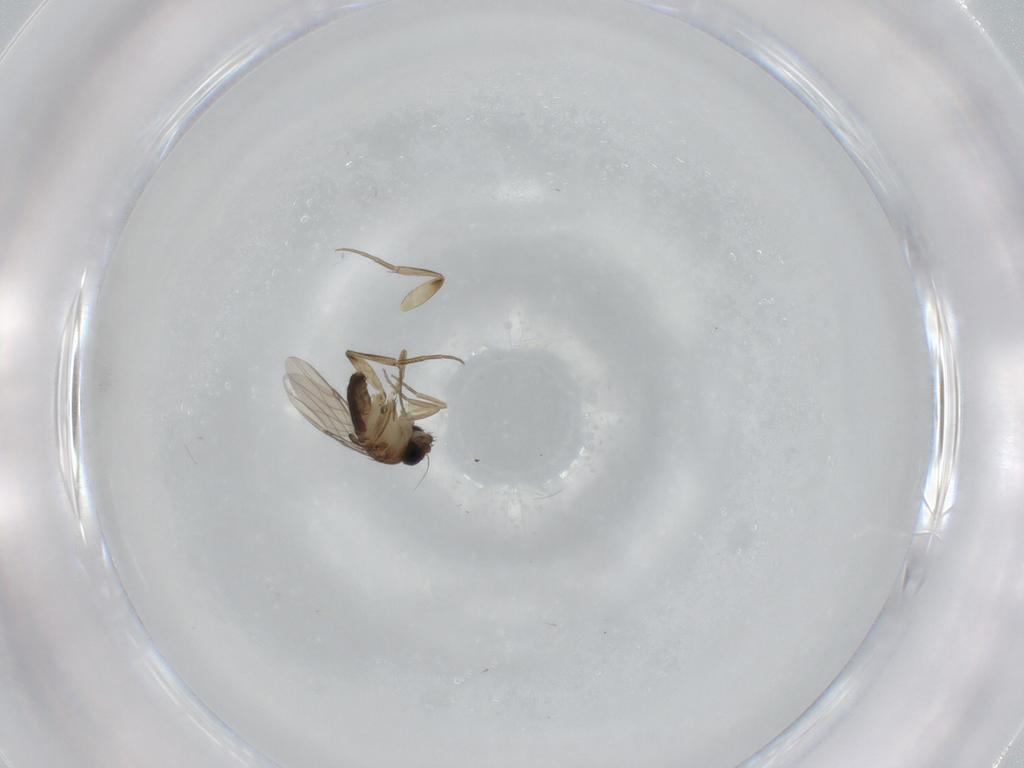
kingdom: Animalia
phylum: Arthropoda
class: Insecta
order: Diptera
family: Phoridae
